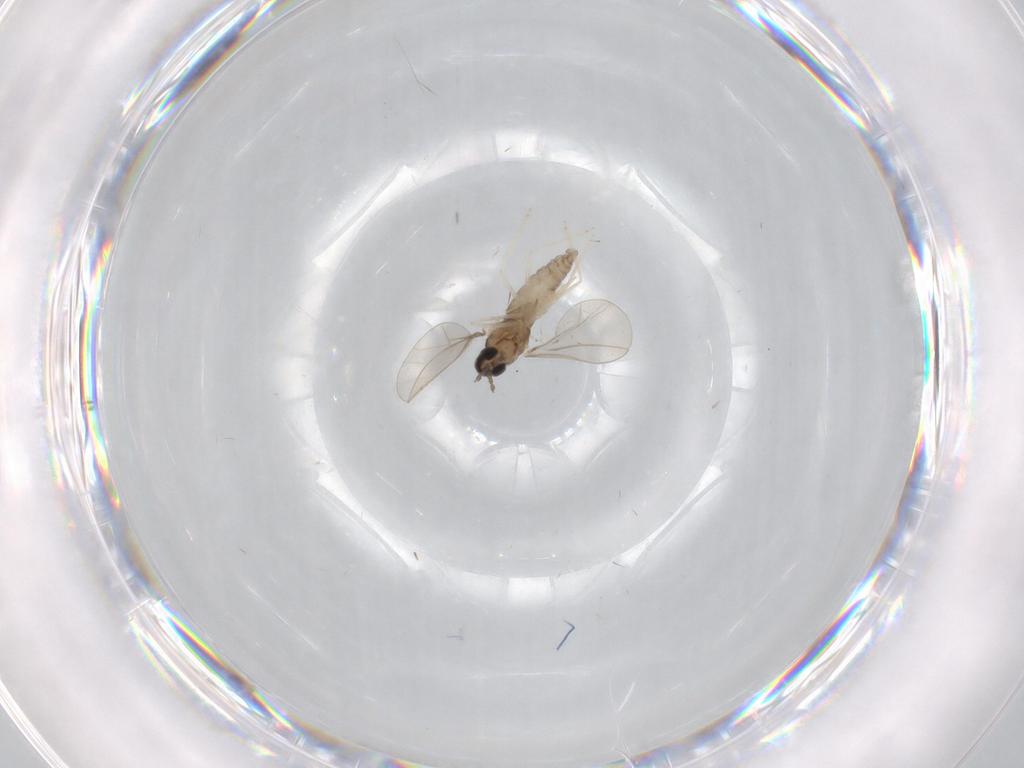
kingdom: Animalia
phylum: Arthropoda
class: Insecta
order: Diptera
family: Cecidomyiidae
